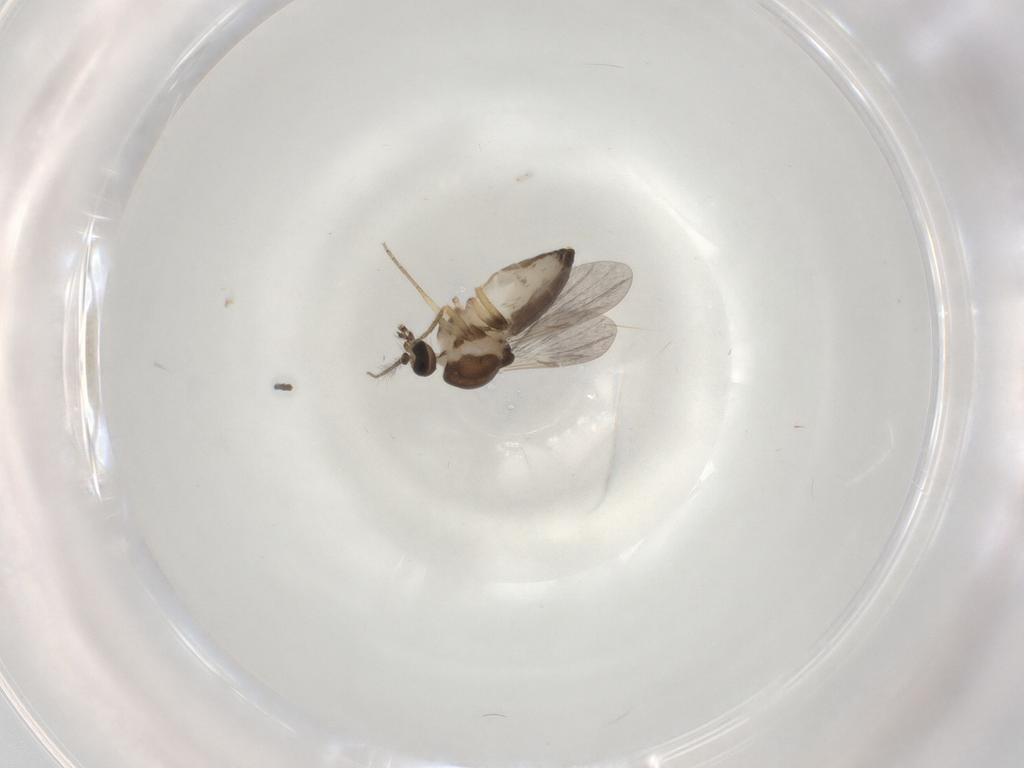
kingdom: Animalia
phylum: Arthropoda
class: Insecta
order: Diptera
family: Ceratopogonidae
